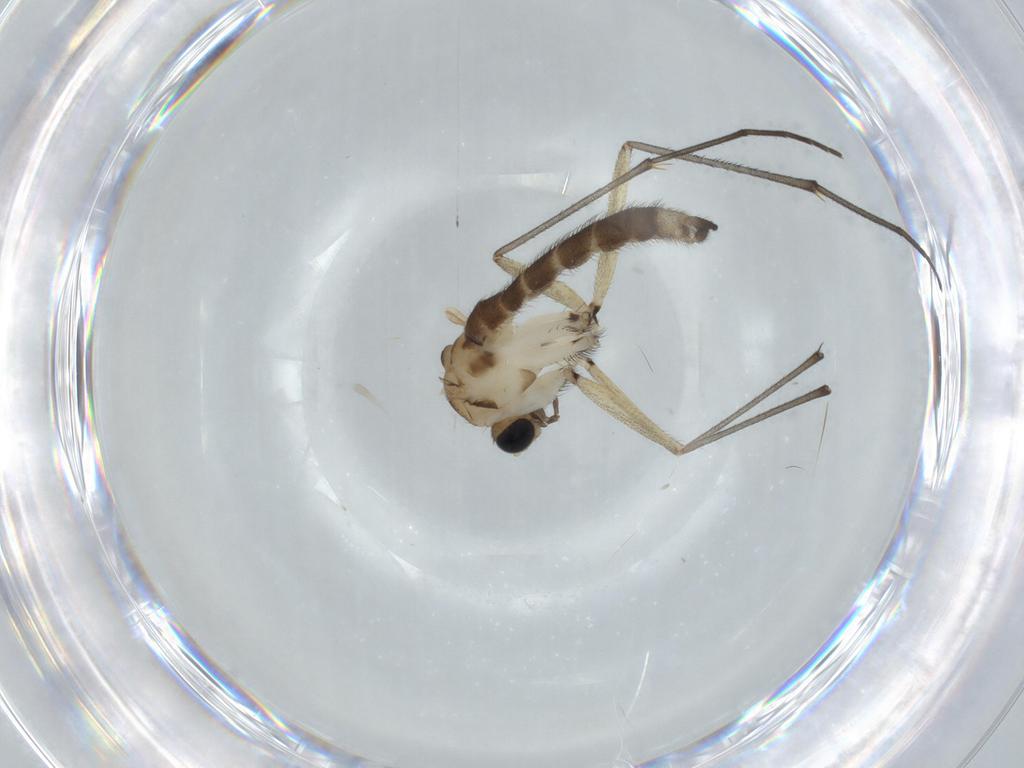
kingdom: Animalia
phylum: Arthropoda
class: Insecta
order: Diptera
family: Sciaridae
